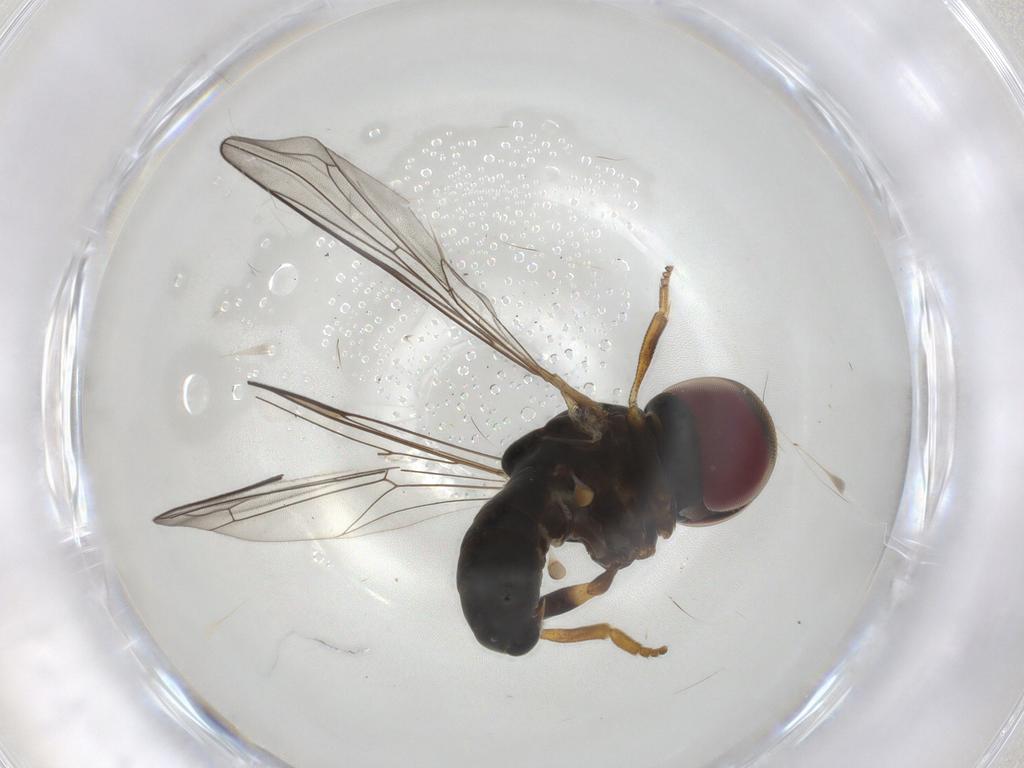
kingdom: Animalia
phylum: Arthropoda
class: Insecta
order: Diptera
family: Pipunculidae
